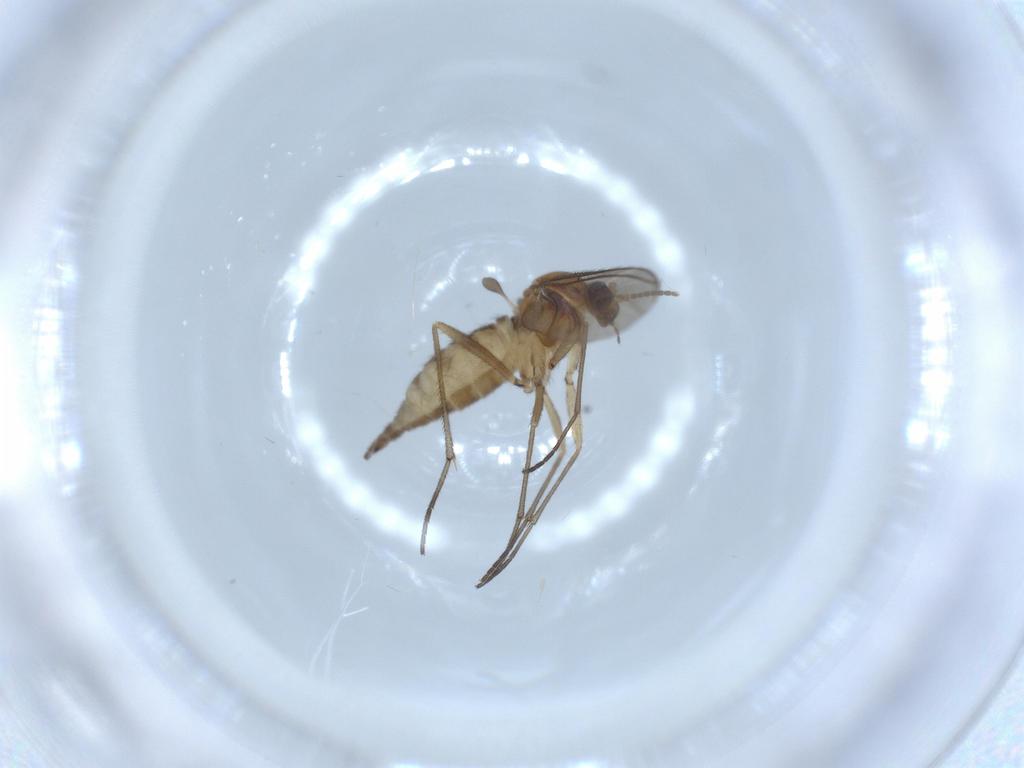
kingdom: Animalia
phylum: Arthropoda
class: Insecta
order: Diptera
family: Sciaridae
